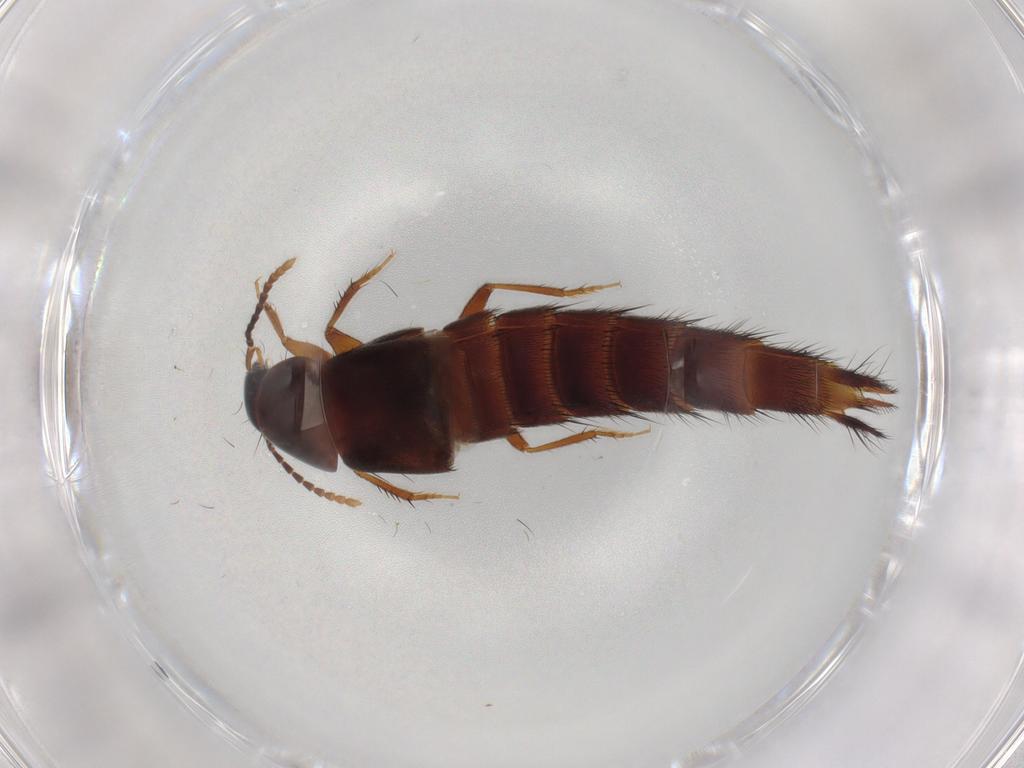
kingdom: Animalia
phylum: Arthropoda
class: Insecta
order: Coleoptera
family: Staphylinidae
